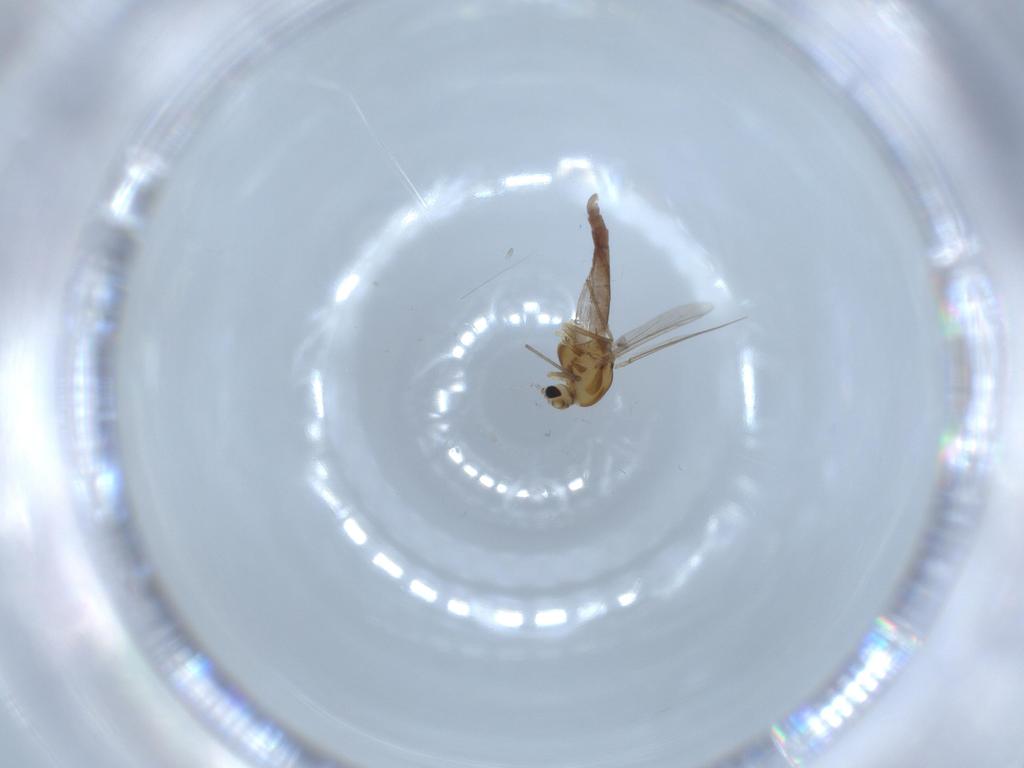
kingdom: Animalia
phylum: Arthropoda
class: Insecta
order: Diptera
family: Chironomidae
